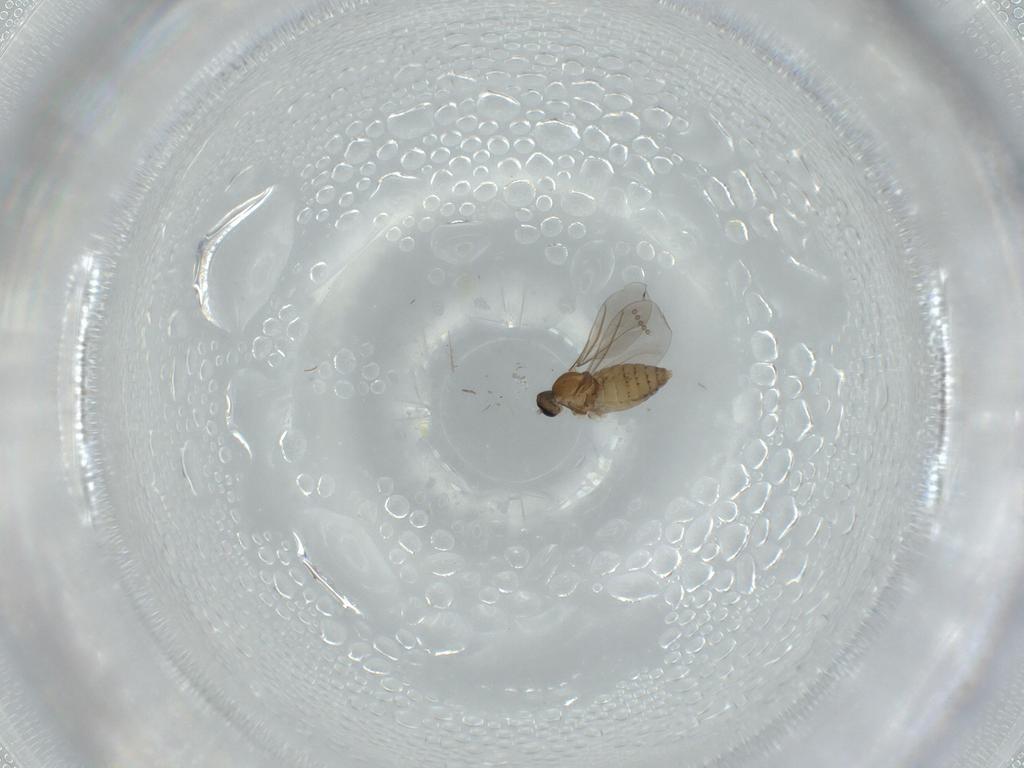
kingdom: Animalia
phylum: Arthropoda
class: Insecta
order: Diptera
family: Cecidomyiidae
